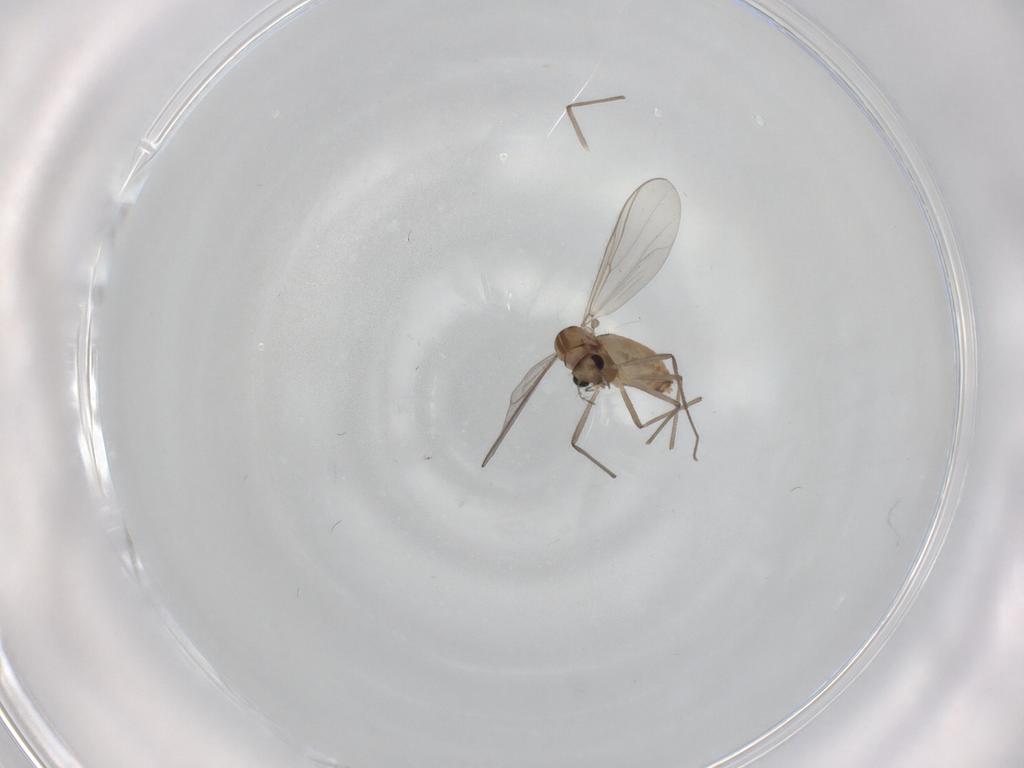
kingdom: Animalia
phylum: Arthropoda
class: Insecta
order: Diptera
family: Chironomidae
